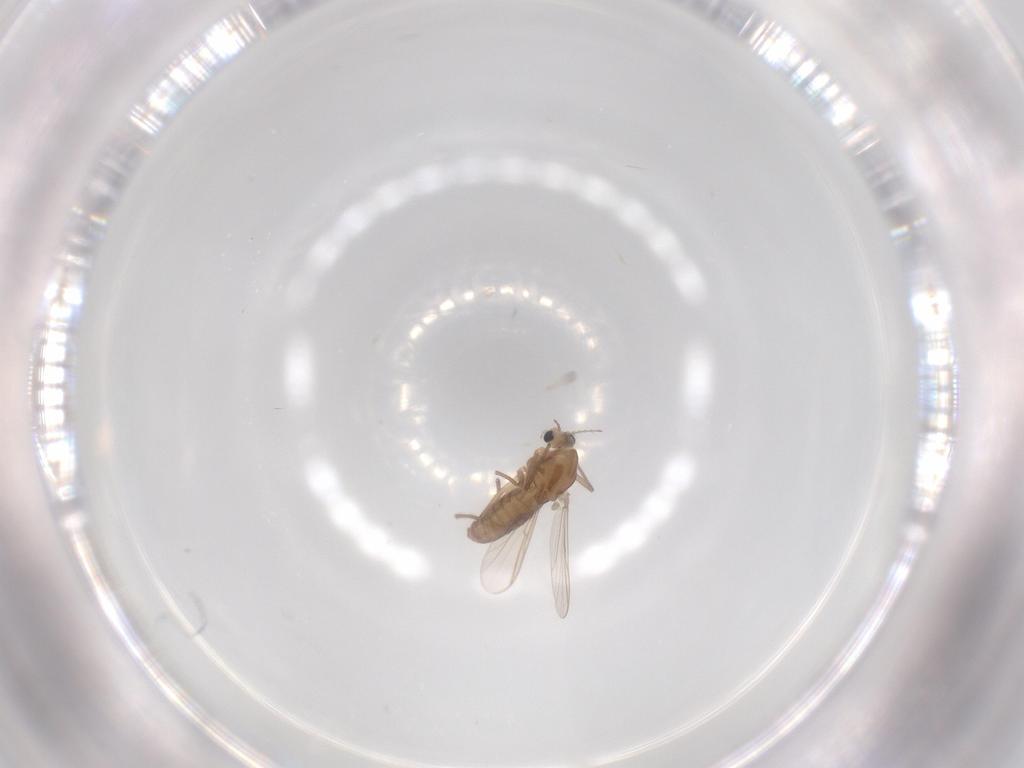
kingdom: Animalia
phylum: Arthropoda
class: Insecta
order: Diptera
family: Chironomidae
